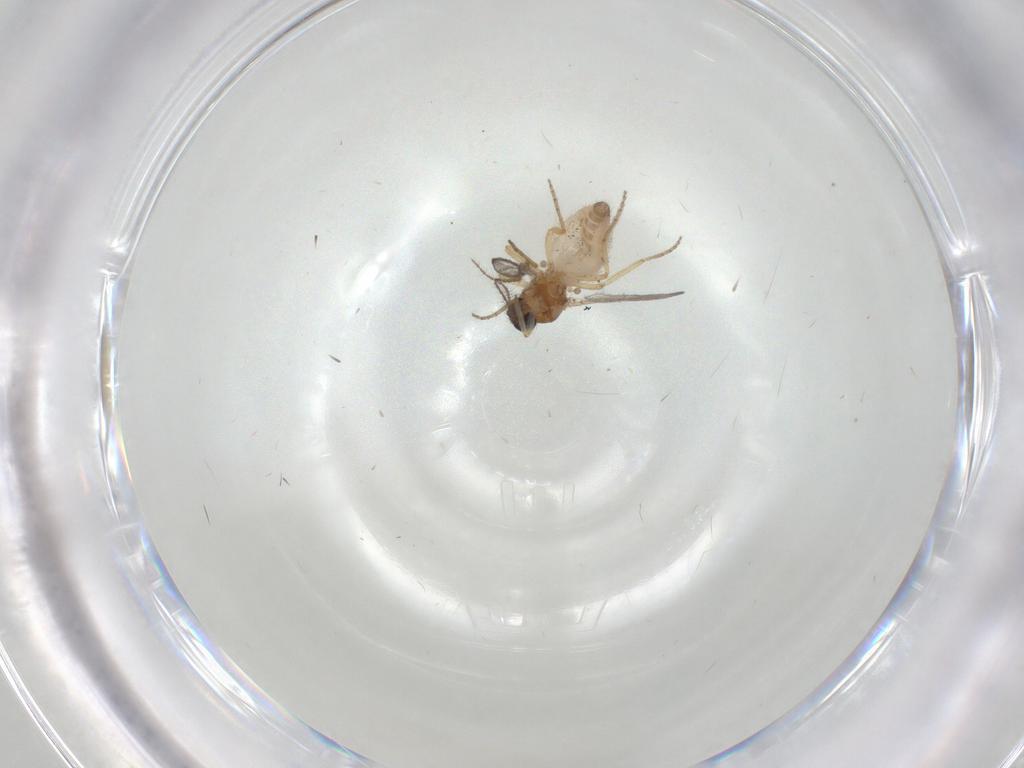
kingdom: Animalia
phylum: Arthropoda
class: Insecta
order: Diptera
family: Ceratopogonidae
